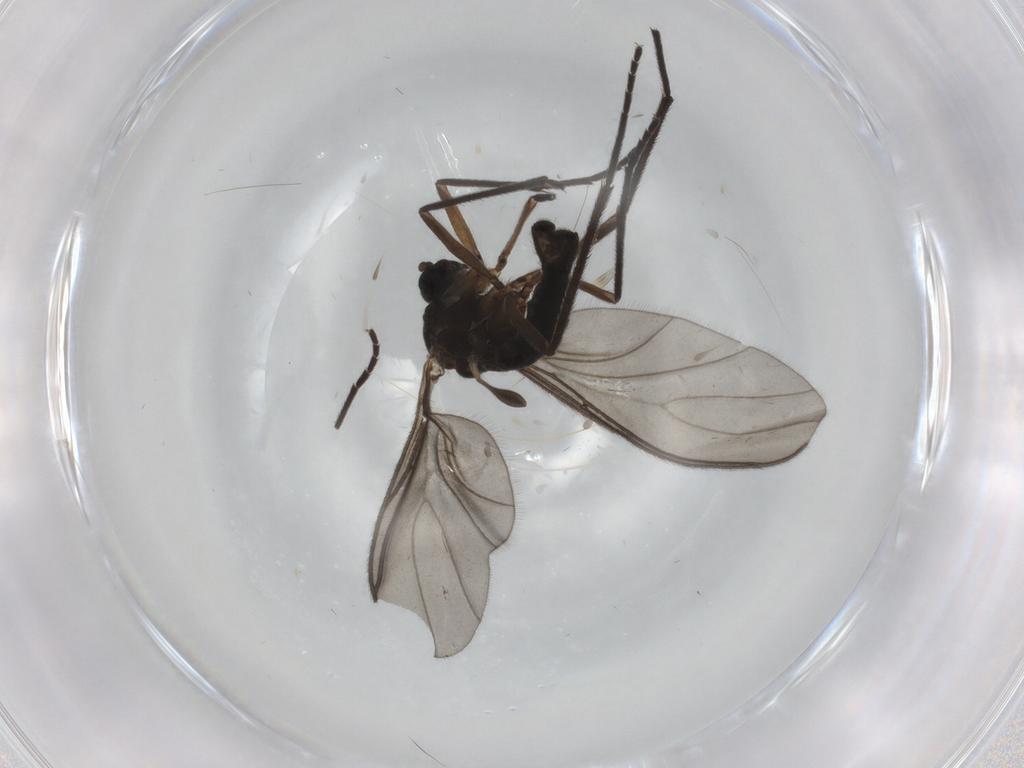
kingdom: Animalia
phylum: Arthropoda
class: Insecta
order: Diptera
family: Sciaridae
